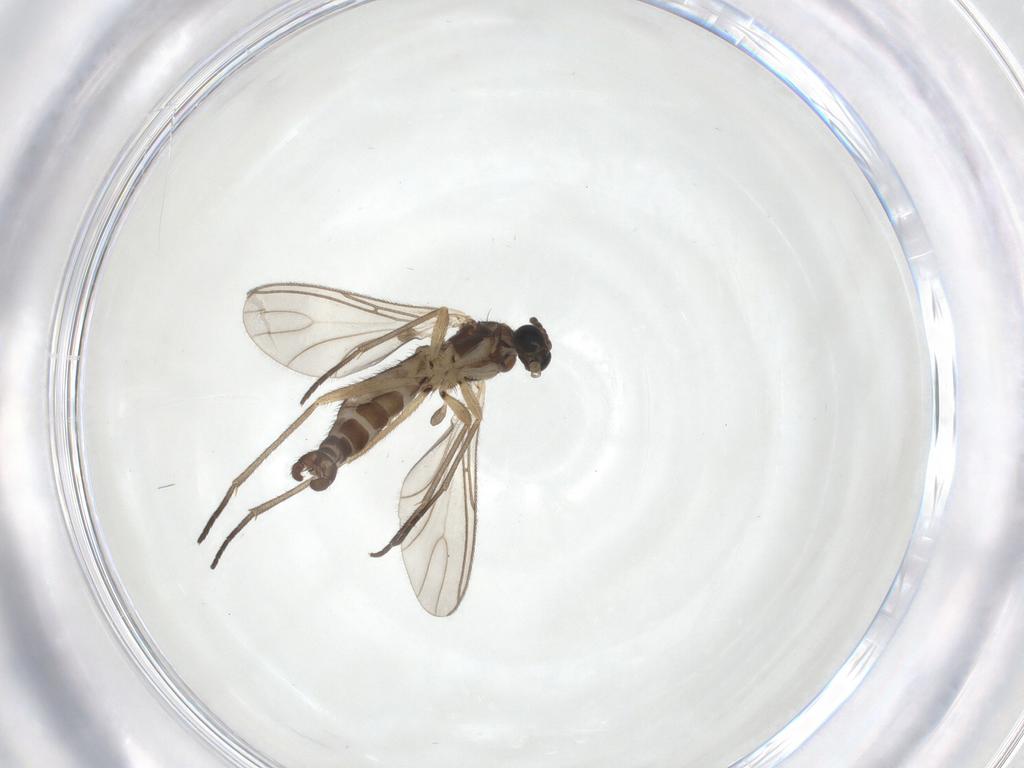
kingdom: Animalia
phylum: Arthropoda
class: Insecta
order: Diptera
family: Sciaridae
